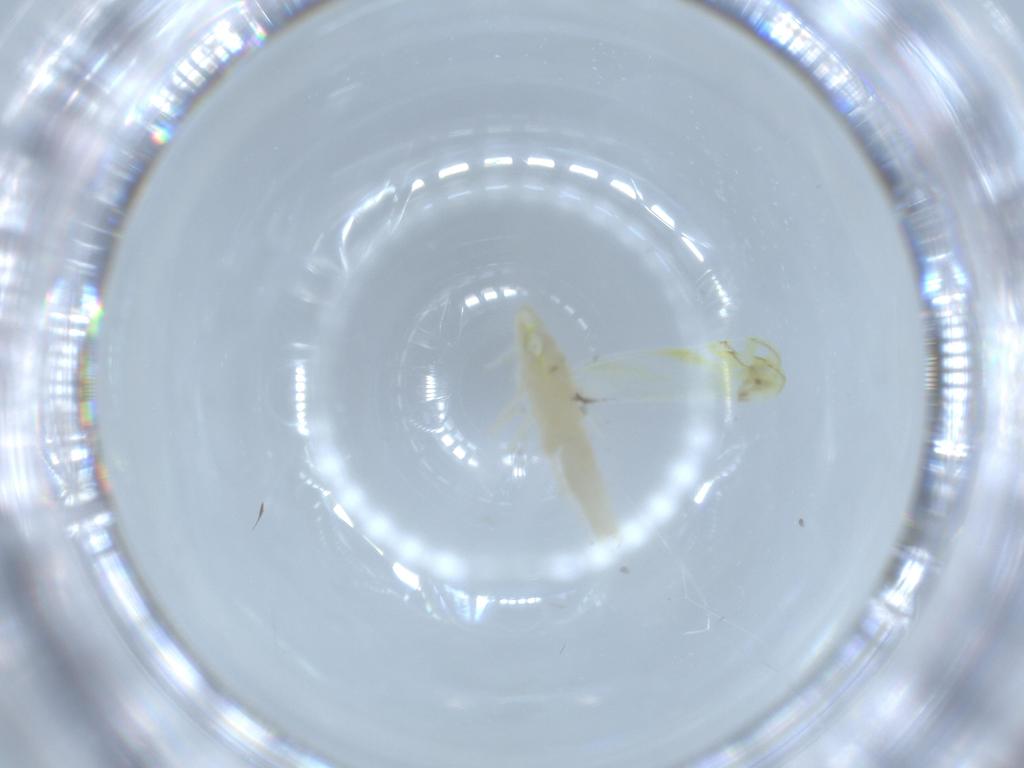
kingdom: Animalia
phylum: Arthropoda
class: Insecta
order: Hemiptera
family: Cicadellidae
